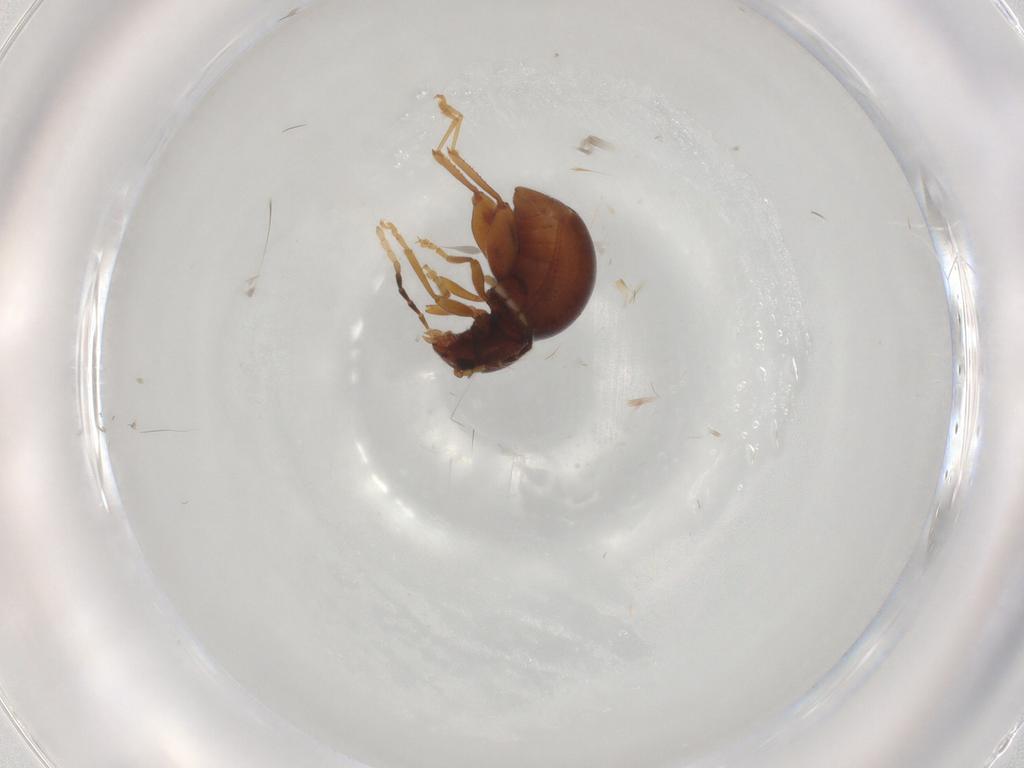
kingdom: Animalia
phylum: Arthropoda
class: Insecta
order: Coleoptera
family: Chrysomelidae
